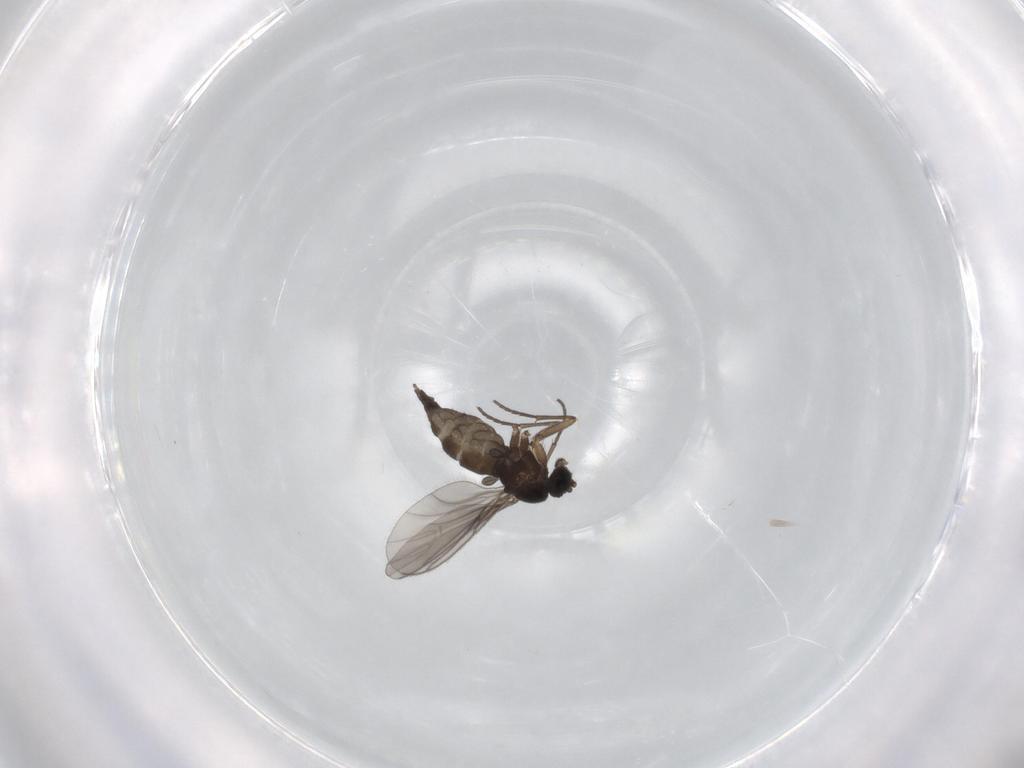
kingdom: Animalia
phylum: Arthropoda
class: Insecta
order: Diptera
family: Sciaridae
